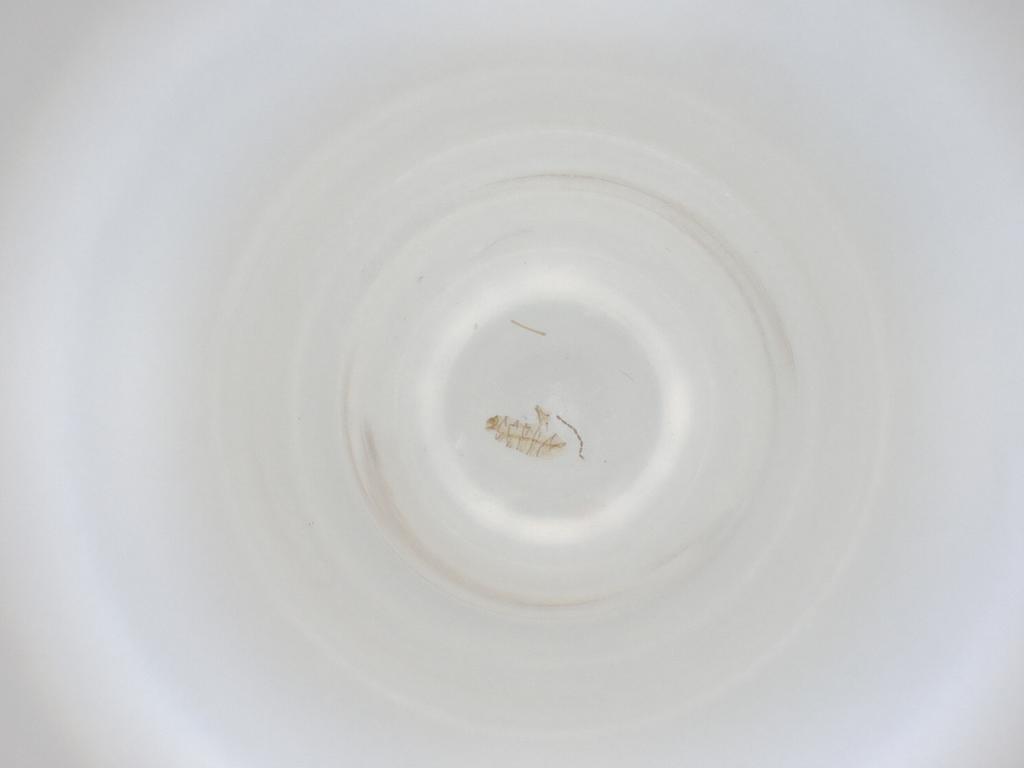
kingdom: Animalia
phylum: Arthropoda
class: Insecta
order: Diptera
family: Cecidomyiidae
